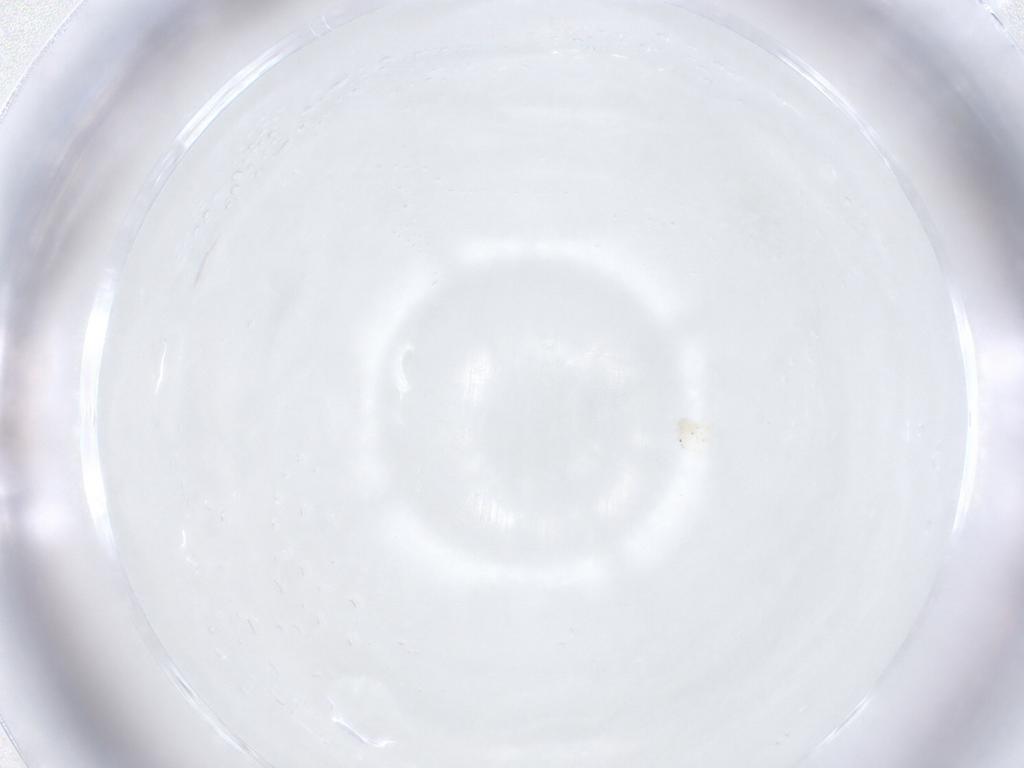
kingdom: Animalia
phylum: Arthropoda
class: Arachnida
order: Trombidiformes
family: Anystidae
